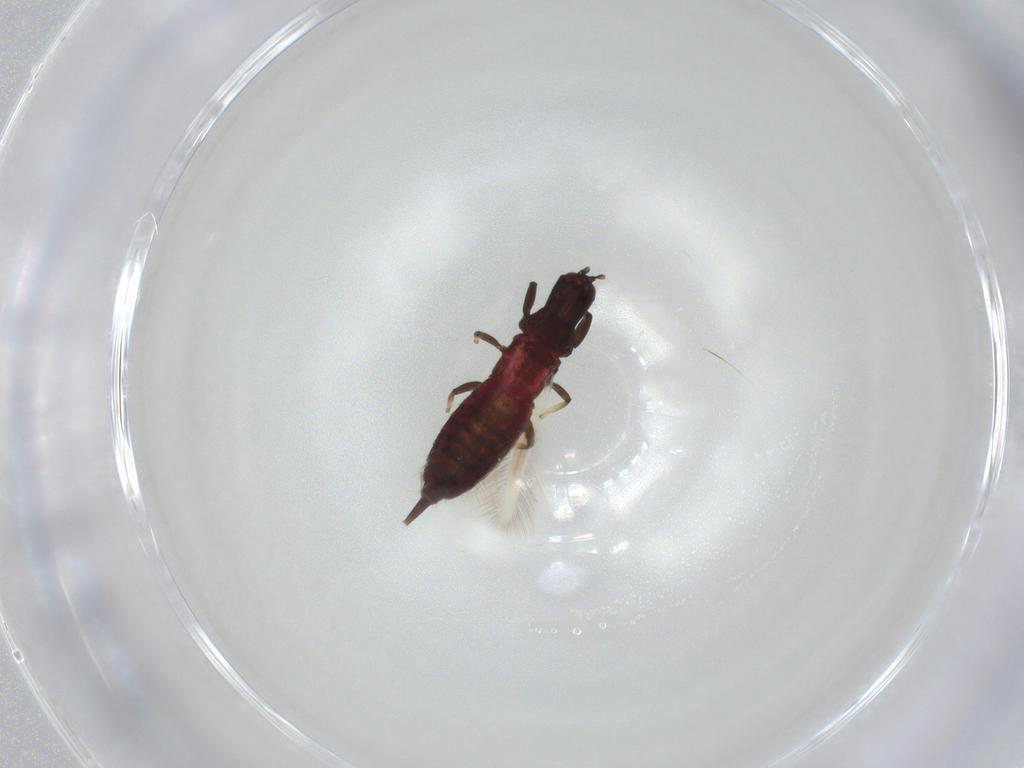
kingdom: Animalia
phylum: Arthropoda
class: Insecta
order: Thysanoptera
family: Phlaeothripidae
